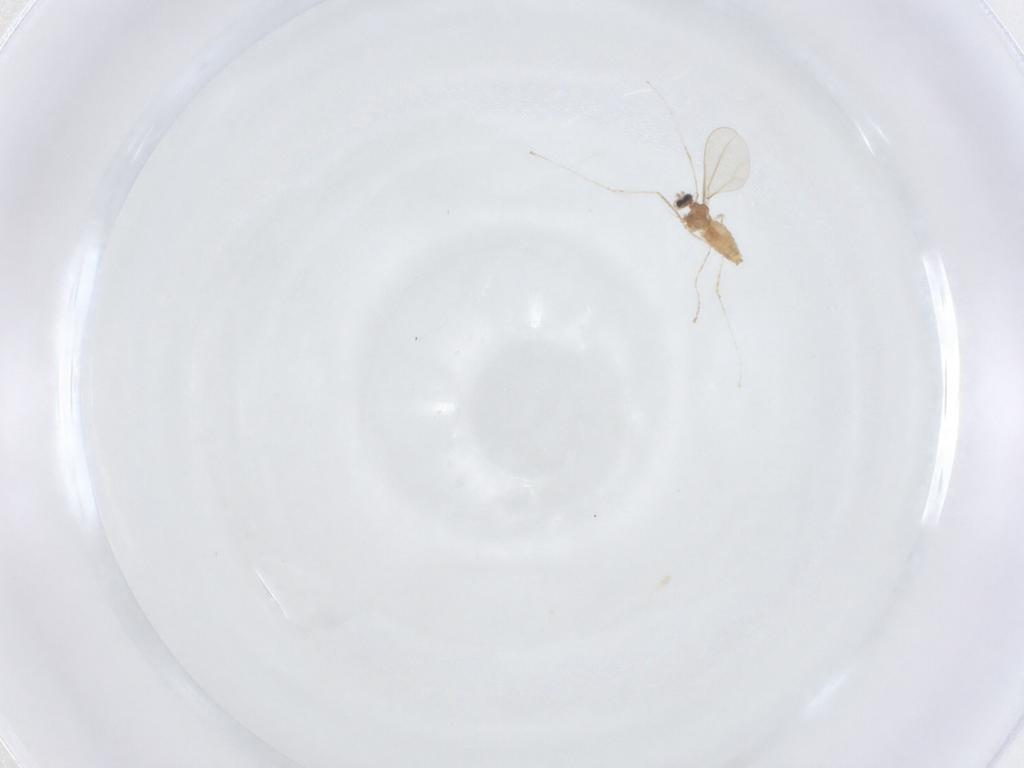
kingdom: Animalia
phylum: Arthropoda
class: Insecta
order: Diptera
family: Cecidomyiidae
